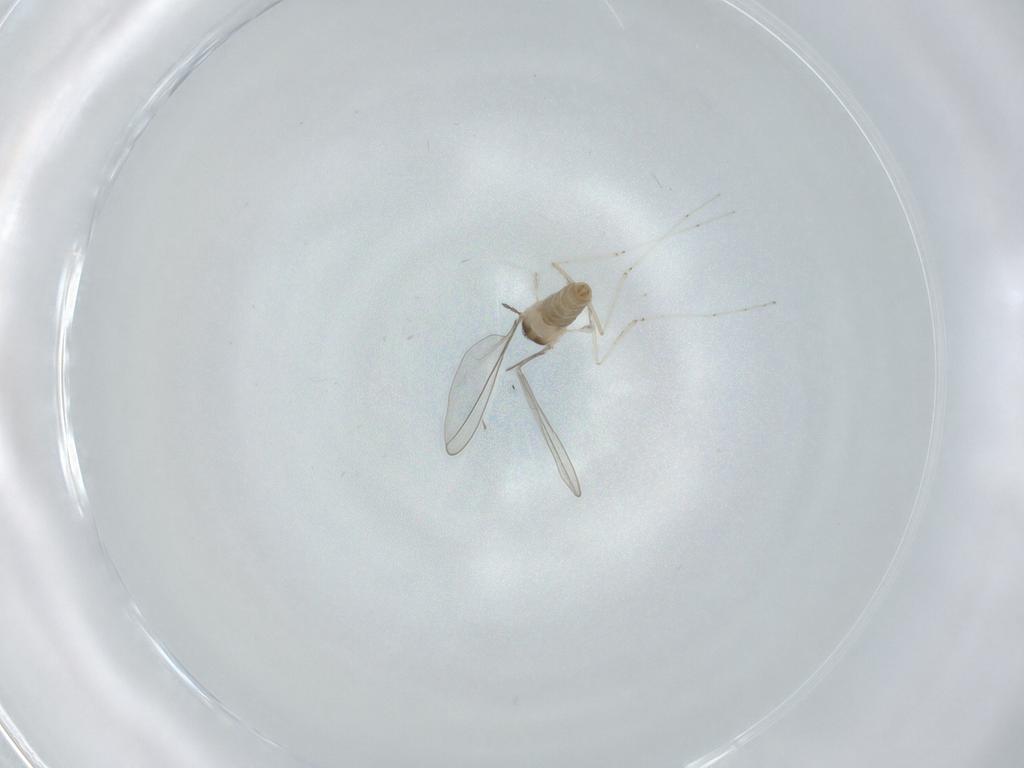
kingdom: Animalia
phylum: Arthropoda
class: Insecta
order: Diptera
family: Cecidomyiidae
